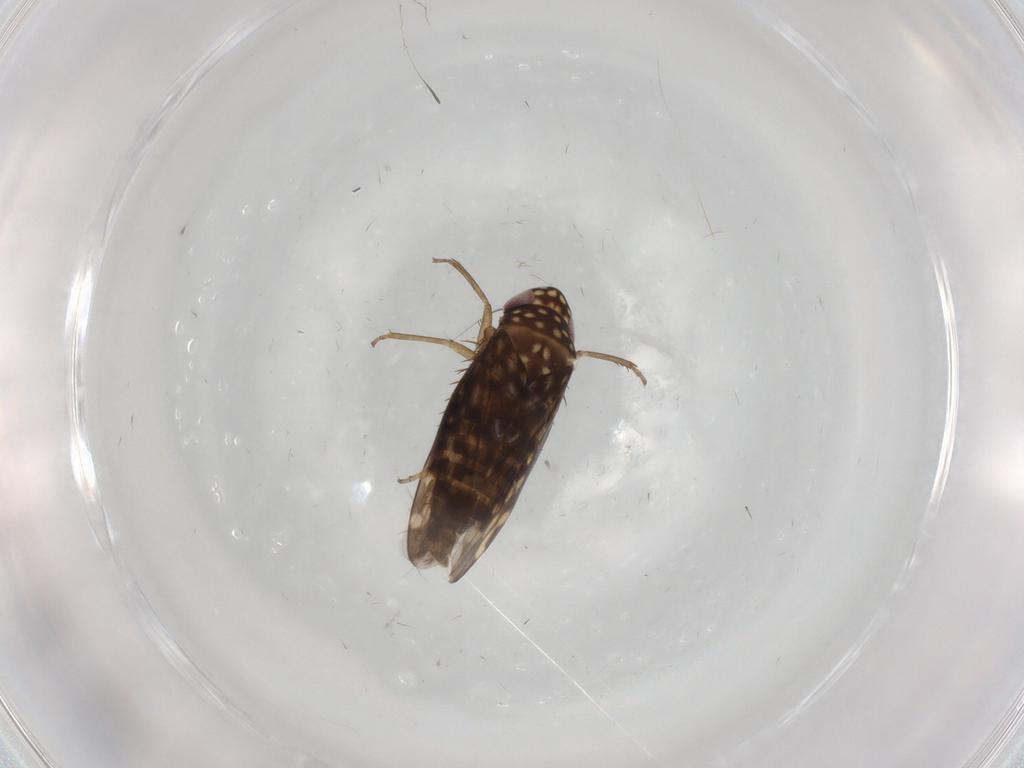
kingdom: Animalia
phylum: Arthropoda
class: Insecta
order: Hemiptera
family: Cicadellidae
